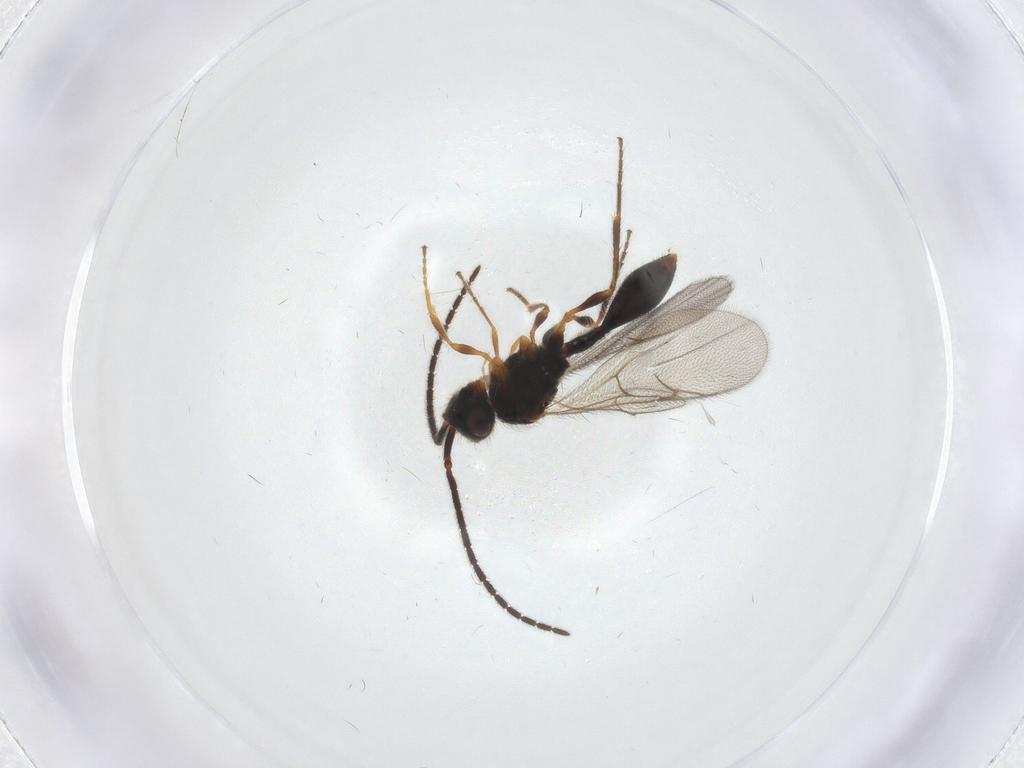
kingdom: Animalia
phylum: Arthropoda
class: Insecta
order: Hymenoptera
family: Diapriidae
